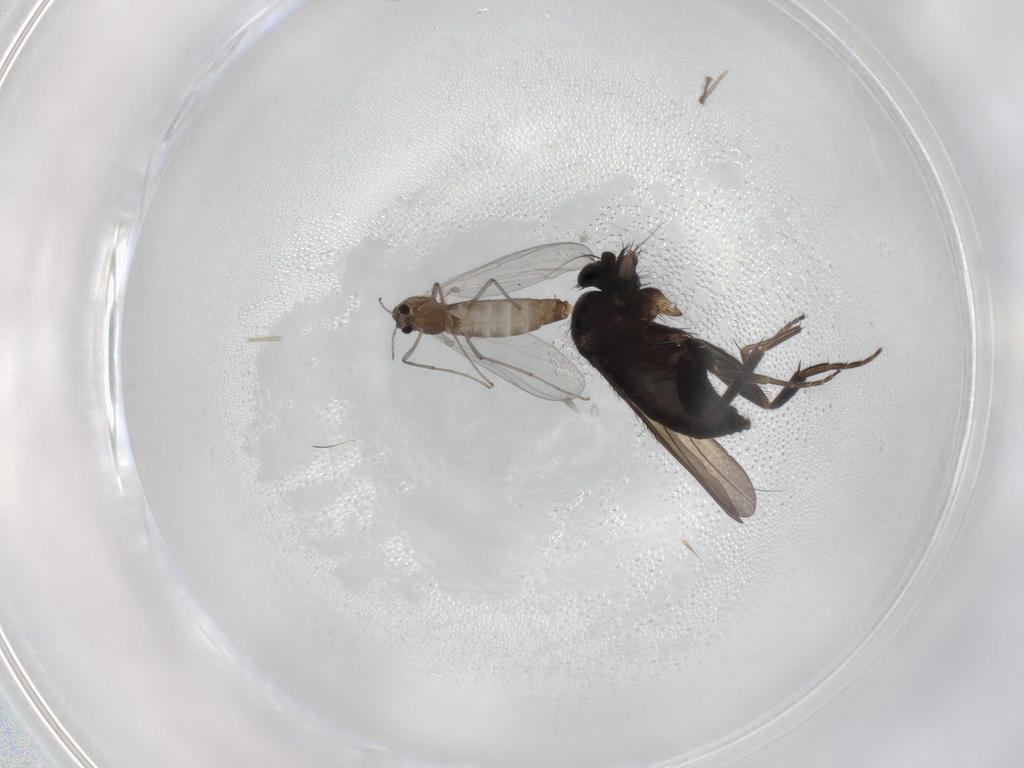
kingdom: Animalia
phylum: Arthropoda
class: Insecta
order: Diptera
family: Phoridae
